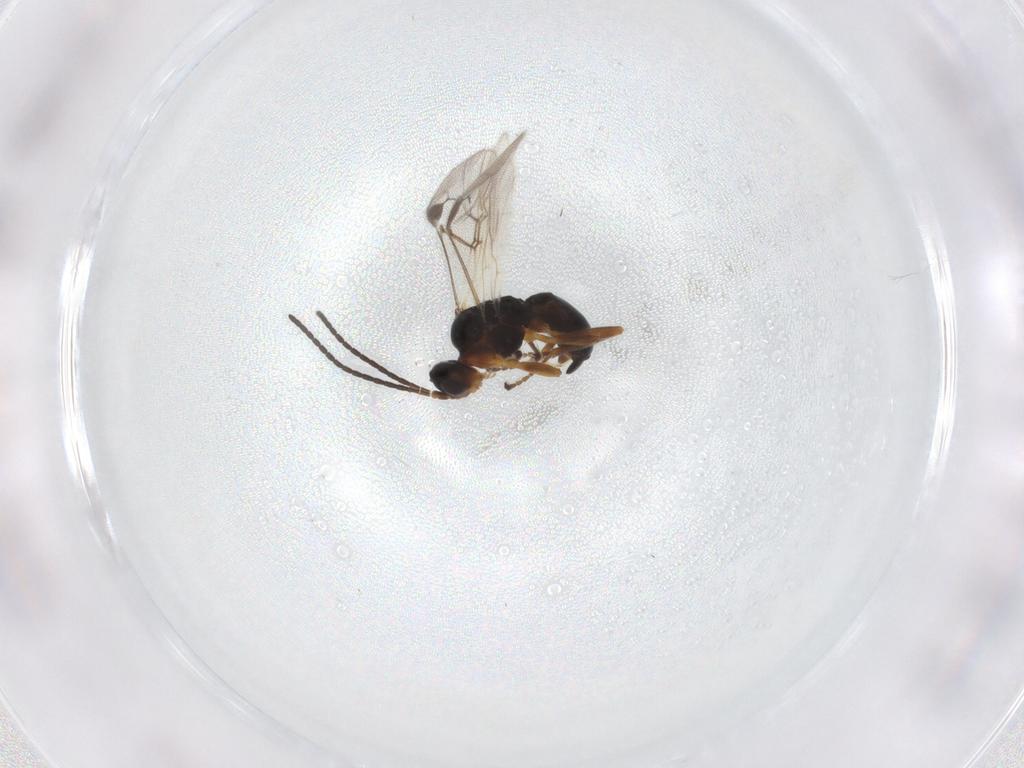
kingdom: Animalia
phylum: Arthropoda
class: Insecta
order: Hymenoptera
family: Braconidae
